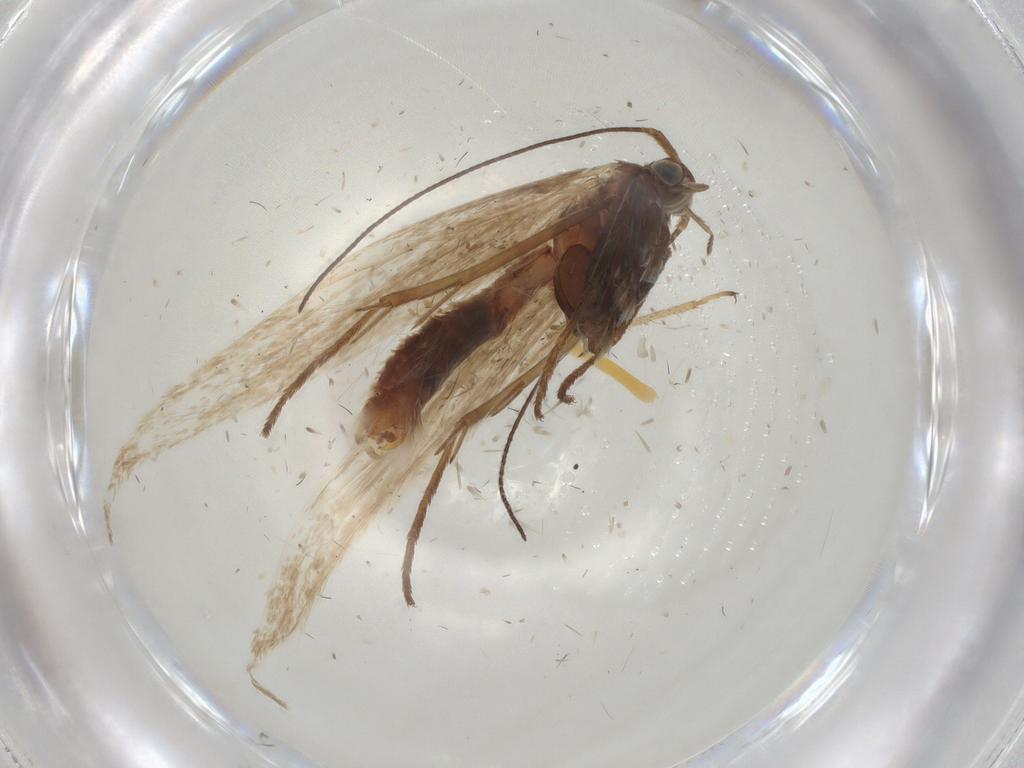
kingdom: Animalia
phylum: Arthropoda
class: Insecta
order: Lepidoptera
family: Coleophoridae
